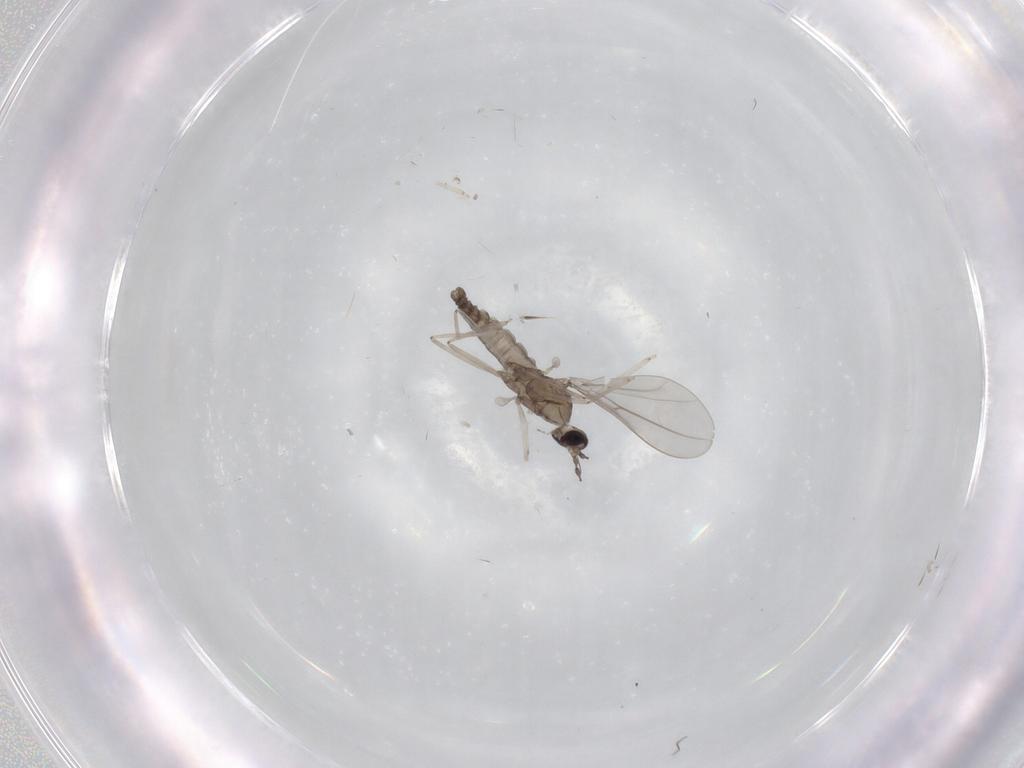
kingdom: Animalia
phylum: Arthropoda
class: Insecta
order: Diptera
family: Cecidomyiidae
